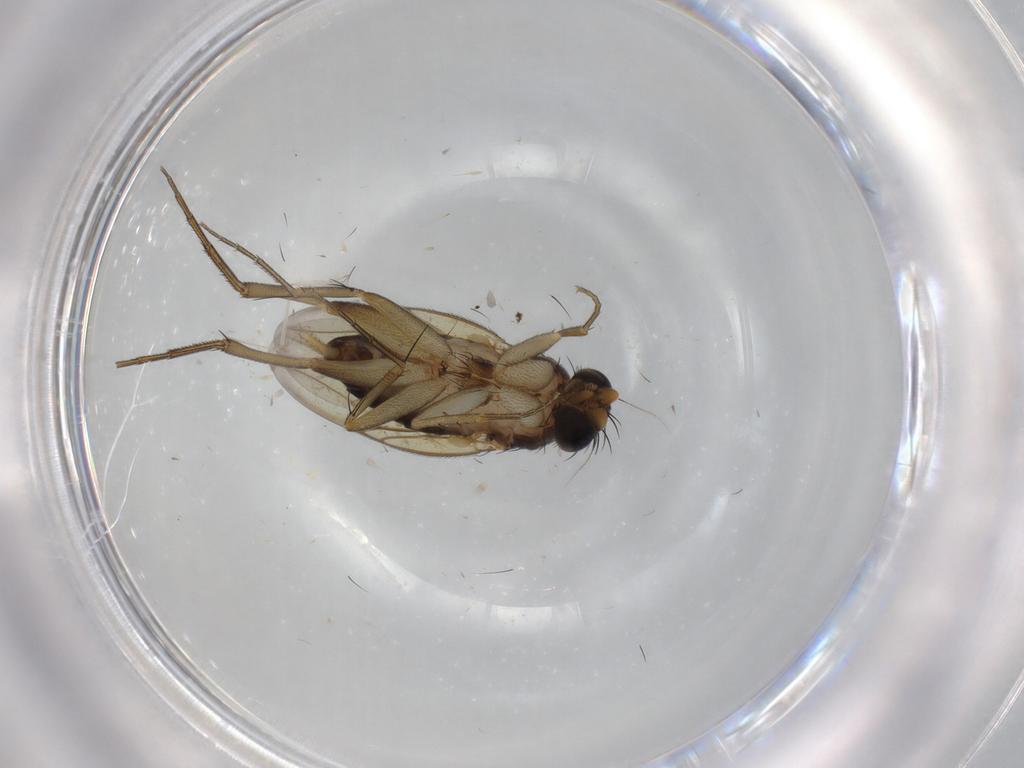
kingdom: Animalia
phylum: Arthropoda
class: Insecta
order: Diptera
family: Phoridae
